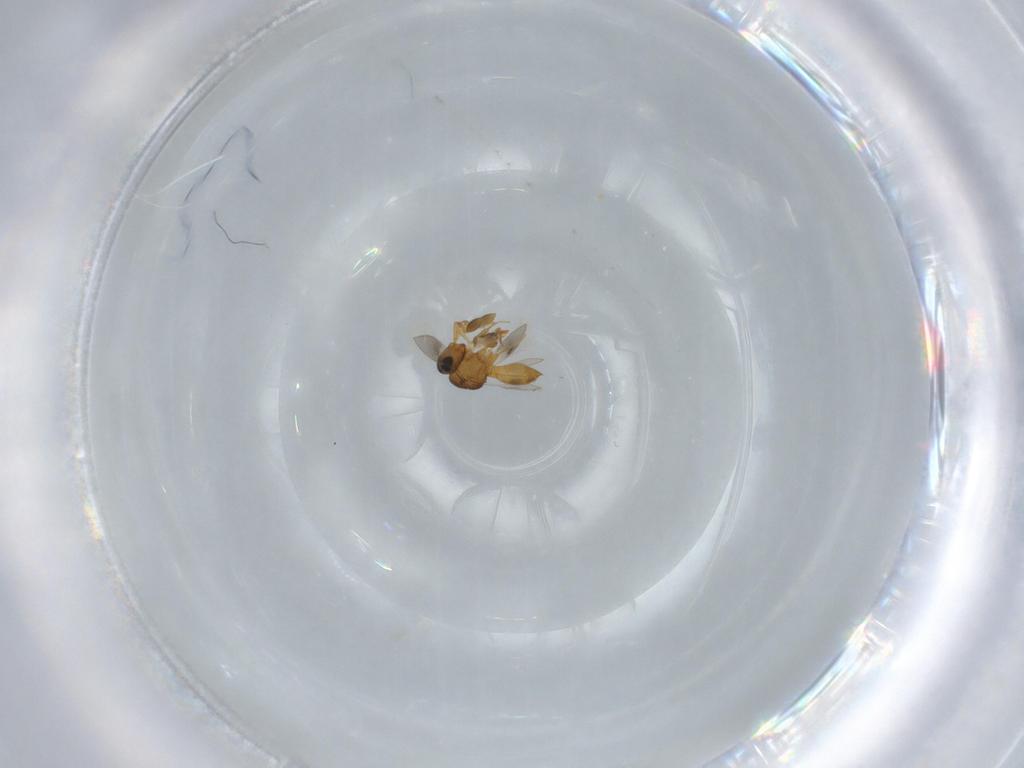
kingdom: Animalia
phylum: Arthropoda
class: Insecta
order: Hymenoptera
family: Scelionidae
